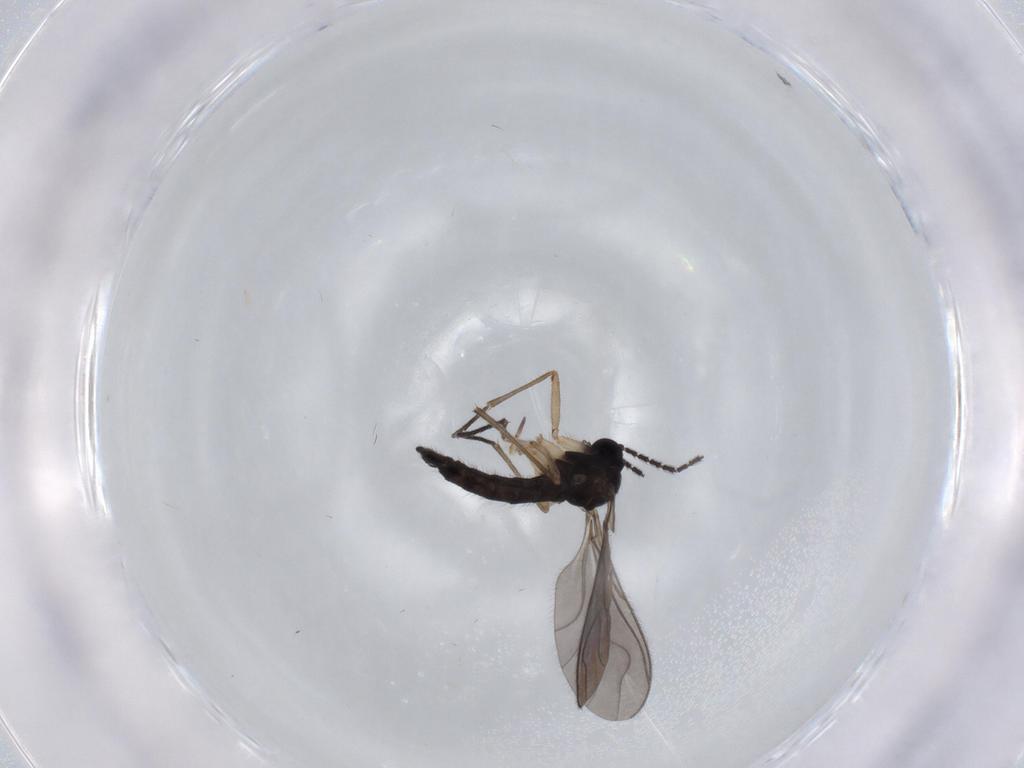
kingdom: Animalia
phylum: Arthropoda
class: Insecta
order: Diptera
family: Sciaridae
